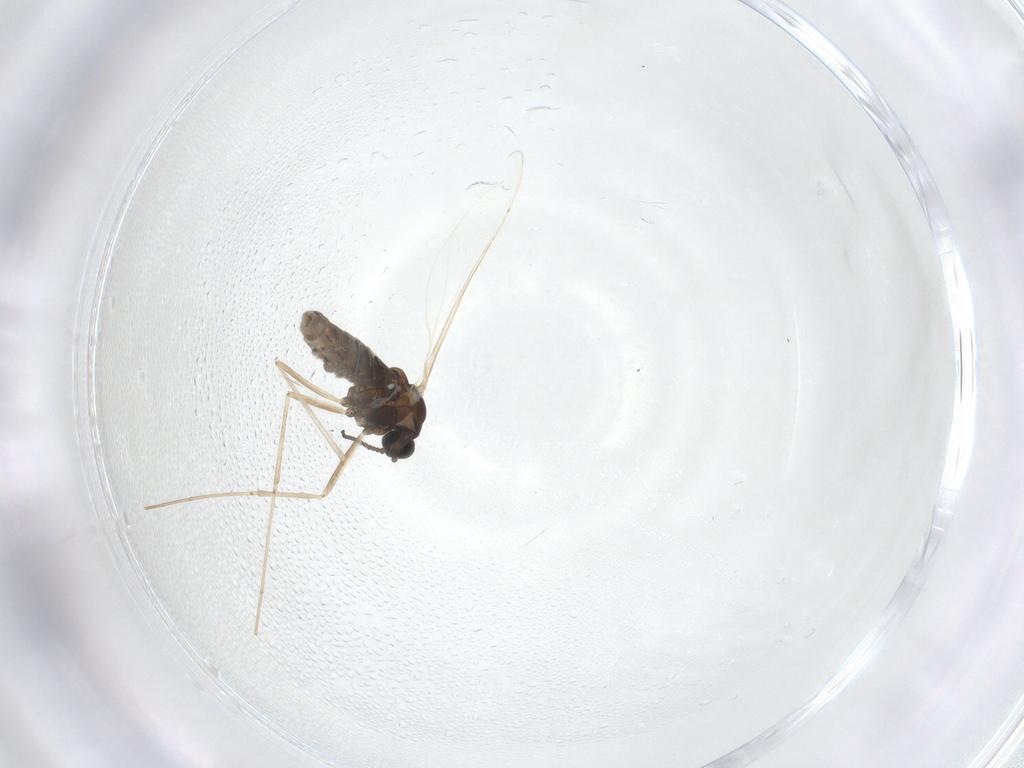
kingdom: Animalia
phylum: Arthropoda
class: Insecta
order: Diptera
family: Cecidomyiidae
